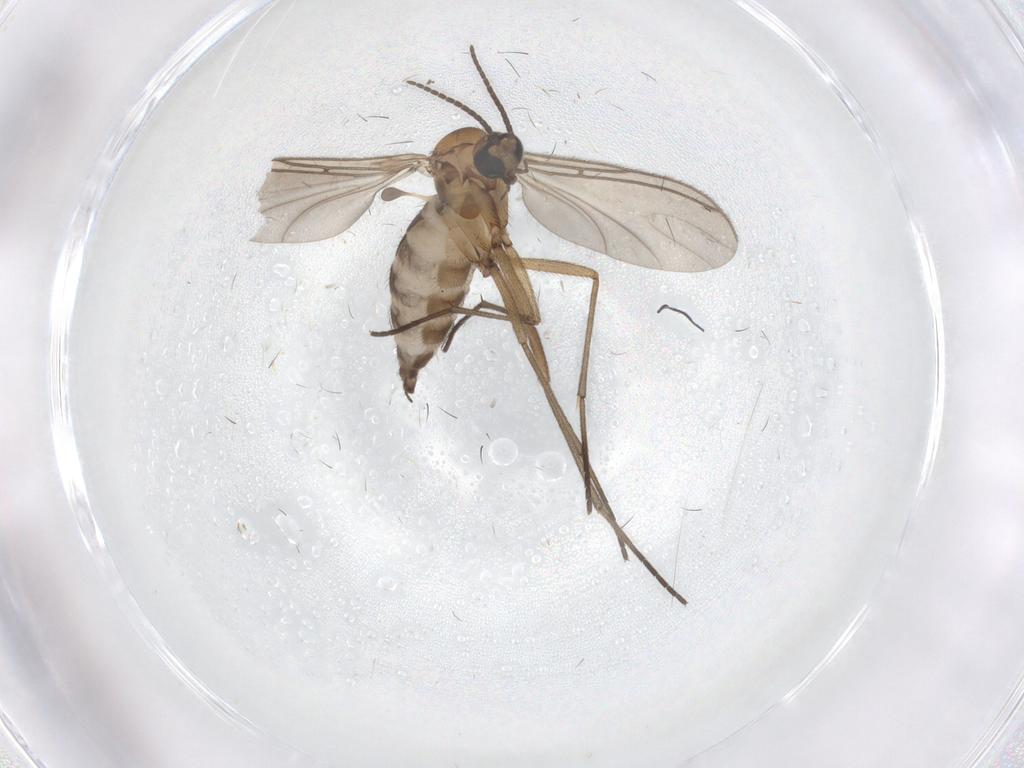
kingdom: Animalia
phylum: Arthropoda
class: Insecta
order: Diptera
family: Sciaridae
